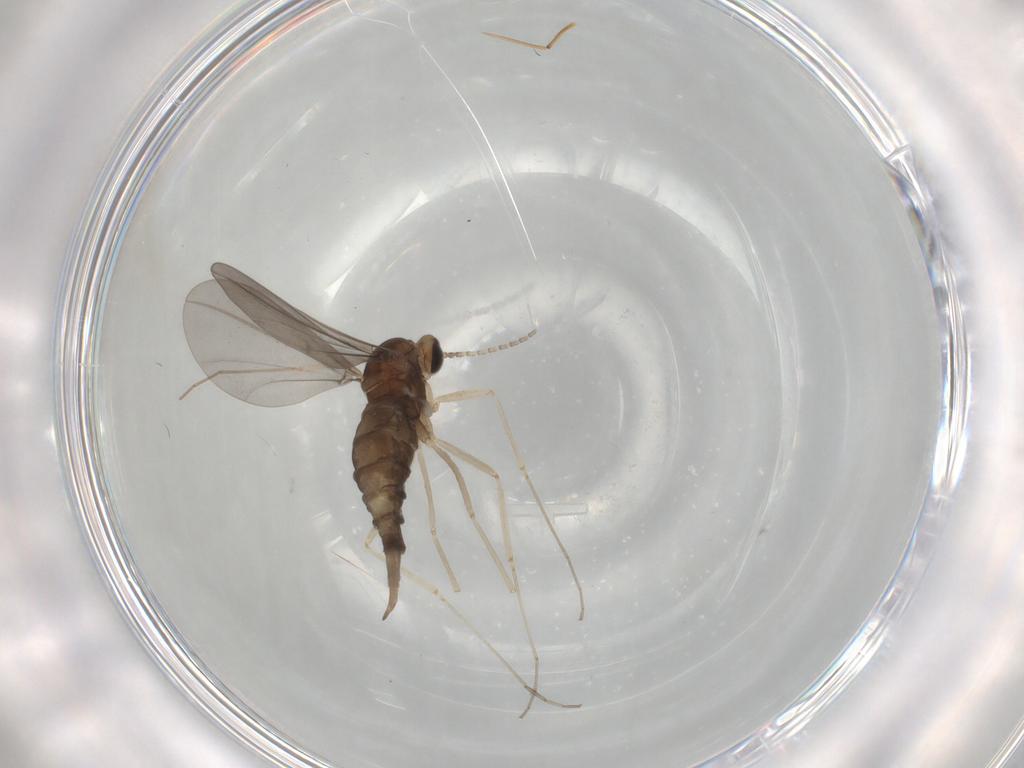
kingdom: Animalia
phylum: Arthropoda
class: Insecta
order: Diptera
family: Cecidomyiidae
